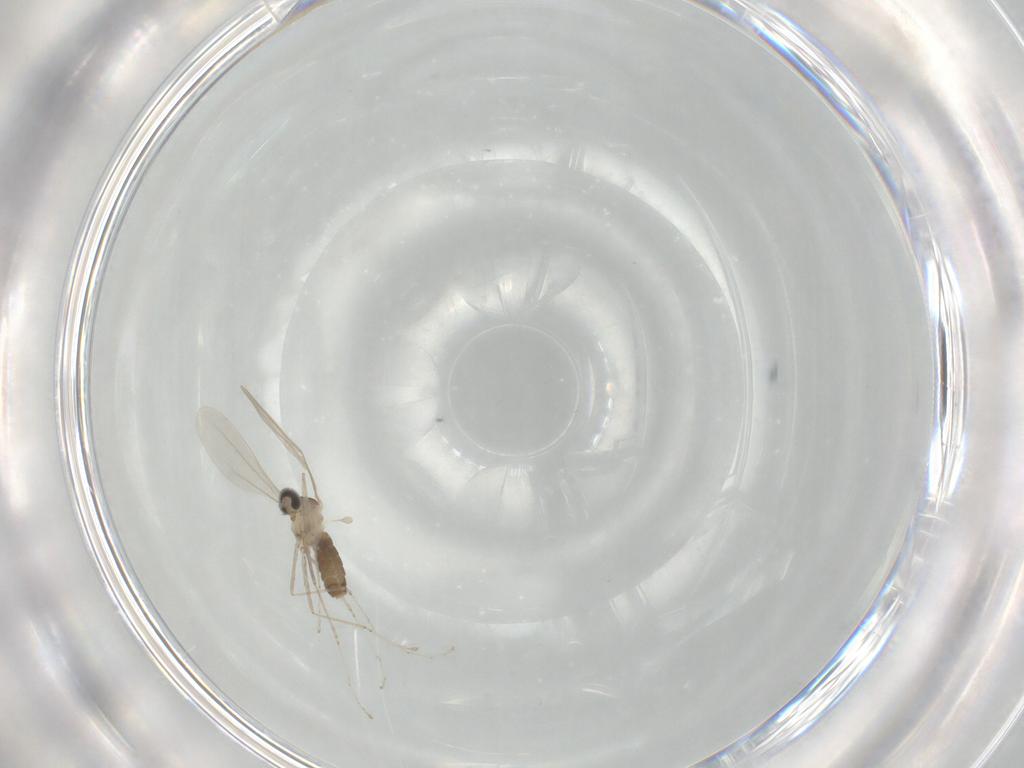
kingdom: Animalia
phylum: Arthropoda
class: Insecta
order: Diptera
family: Cecidomyiidae
